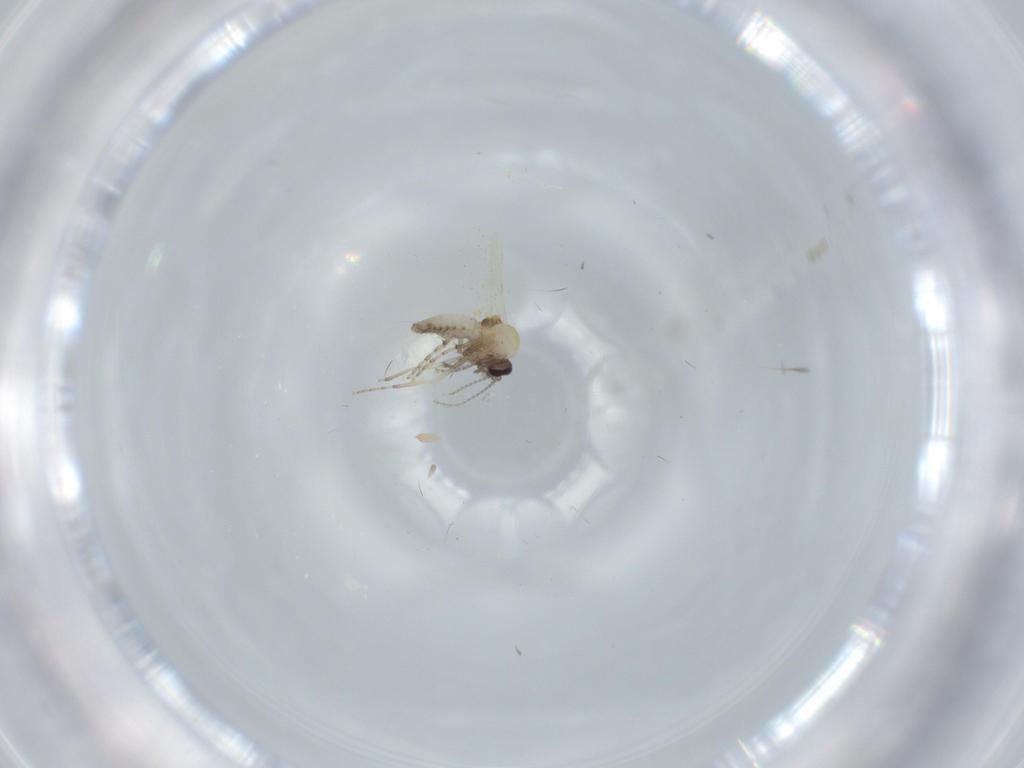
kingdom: Animalia
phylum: Arthropoda
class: Insecta
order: Diptera
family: Ceratopogonidae
